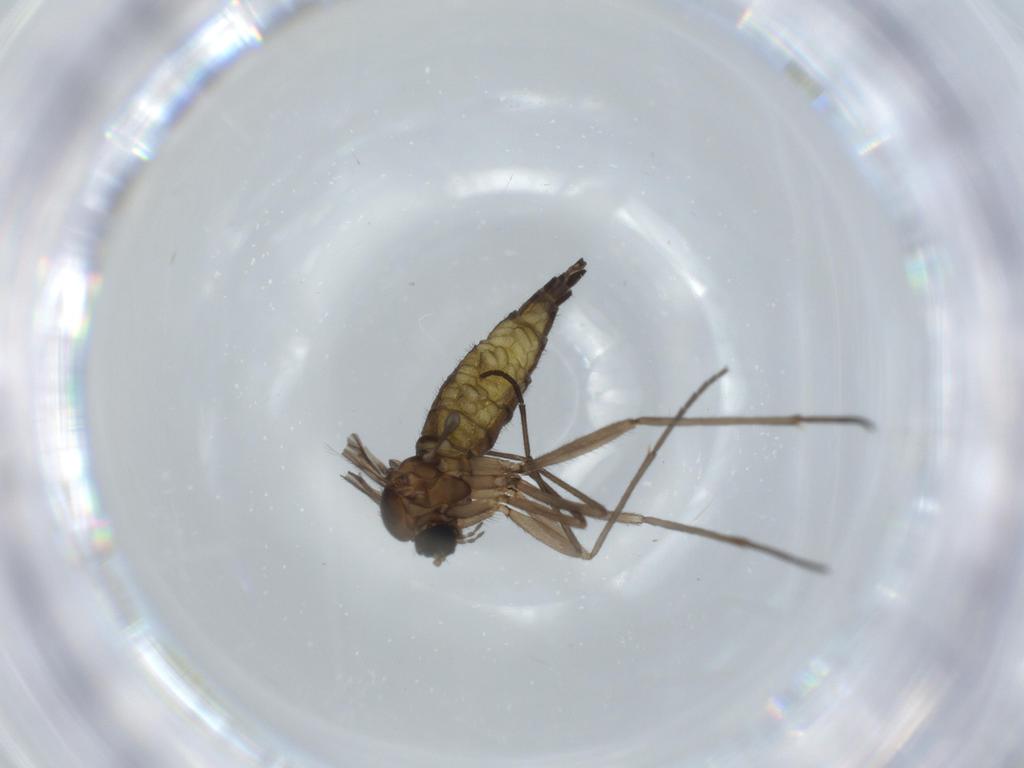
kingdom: Animalia
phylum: Arthropoda
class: Insecta
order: Diptera
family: Sciaridae
